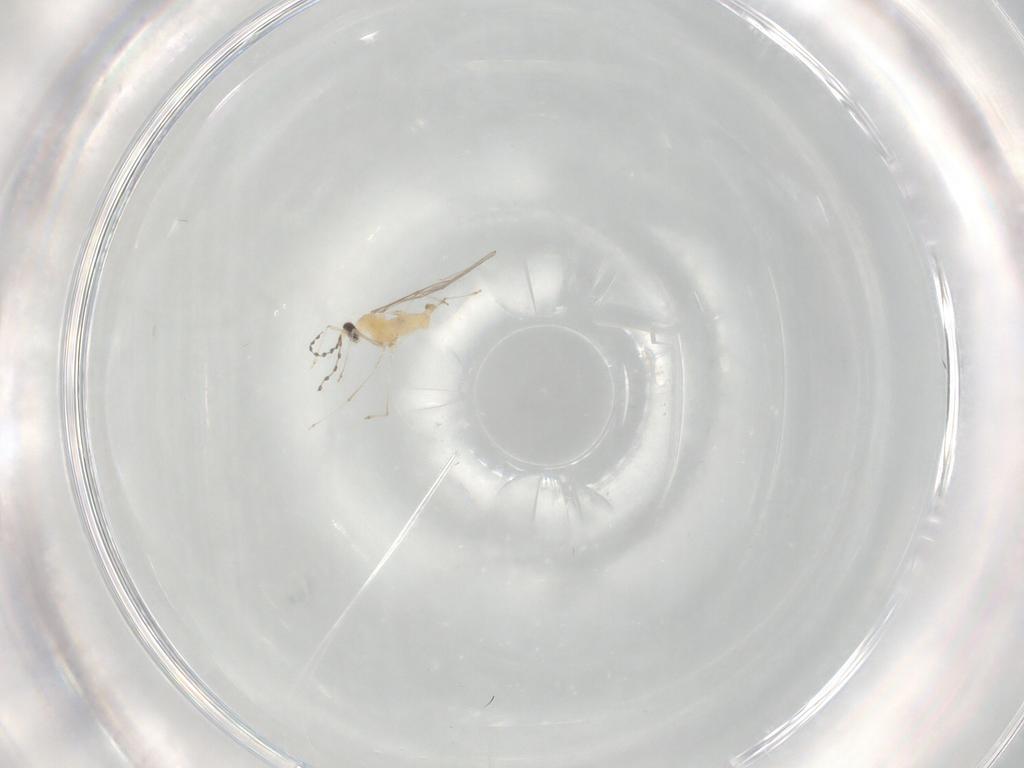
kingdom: Animalia
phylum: Arthropoda
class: Insecta
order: Diptera
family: Cecidomyiidae
